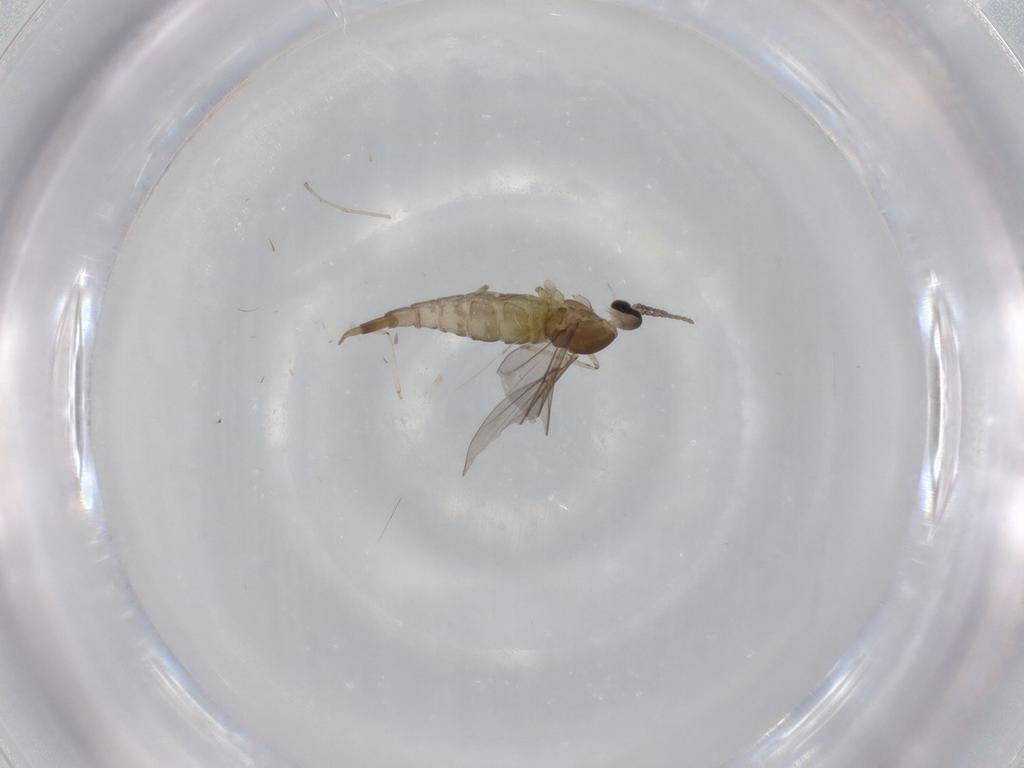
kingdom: Animalia
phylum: Arthropoda
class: Insecta
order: Diptera
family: Cecidomyiidae
